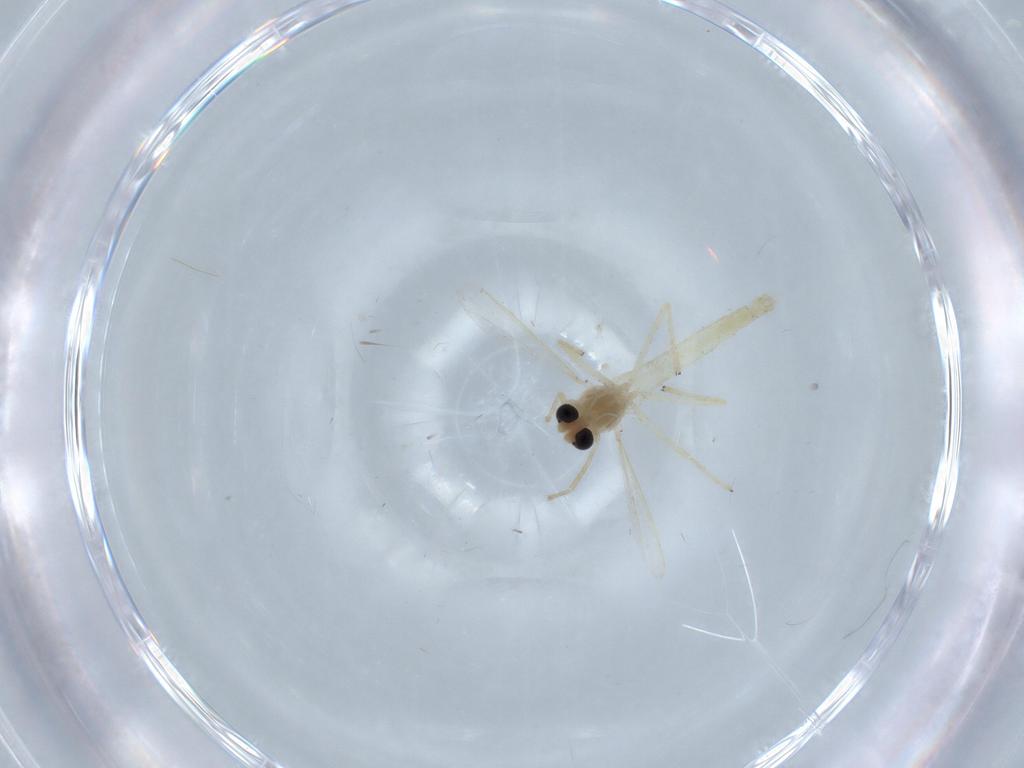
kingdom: Animalia
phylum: Arthropoda
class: Insecta
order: Diptera
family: Chironomidae
